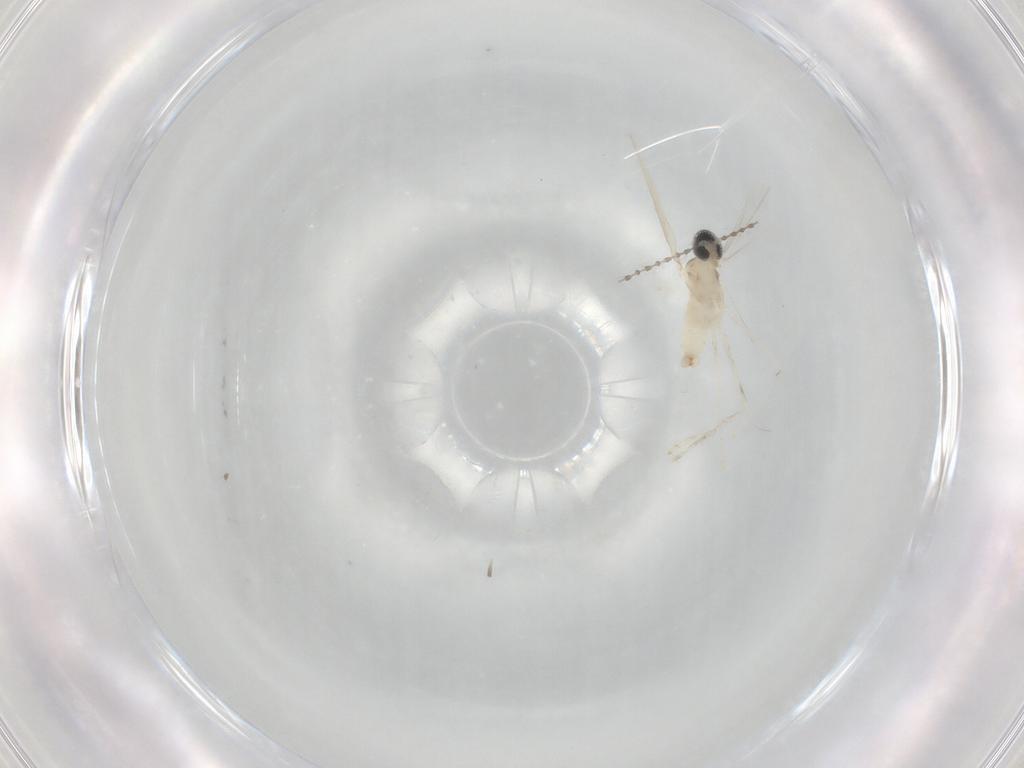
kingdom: Animalia
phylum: Arthropoda
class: Insecta
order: Diptera
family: Cecidomyiidae
